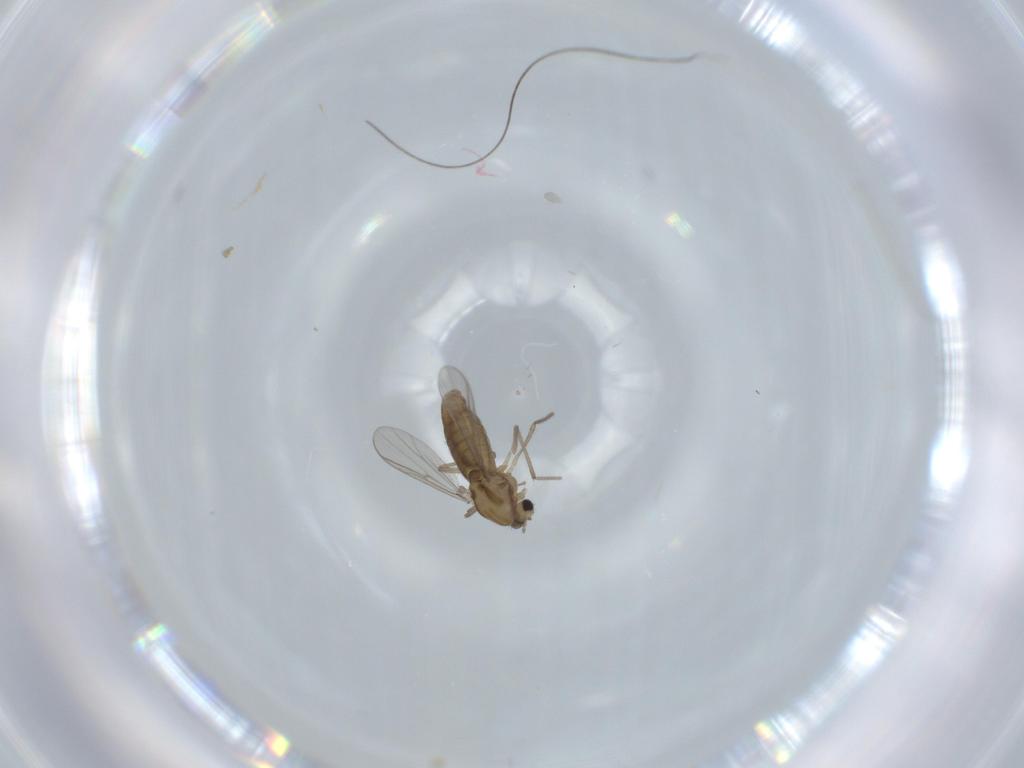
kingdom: Animalia
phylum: Arthropoda
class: Insecta
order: Diptera
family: Chironomidae
